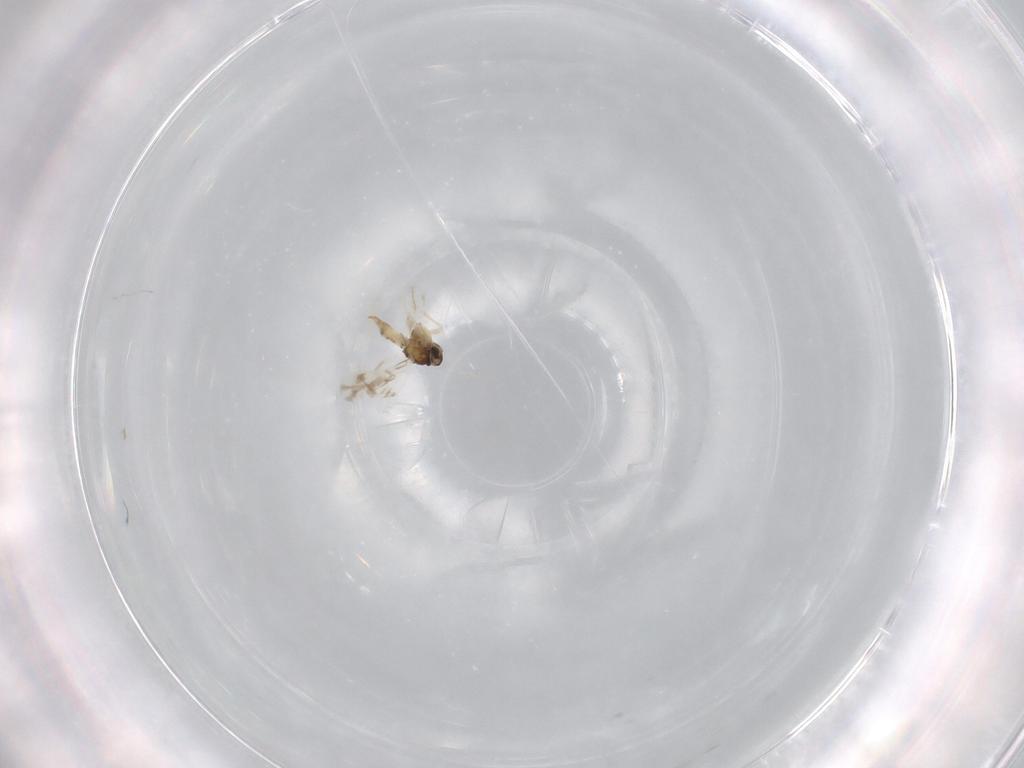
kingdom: Animalia
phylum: Arthropoda
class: Insecta
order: Hemiptera
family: Aleyrodidae
